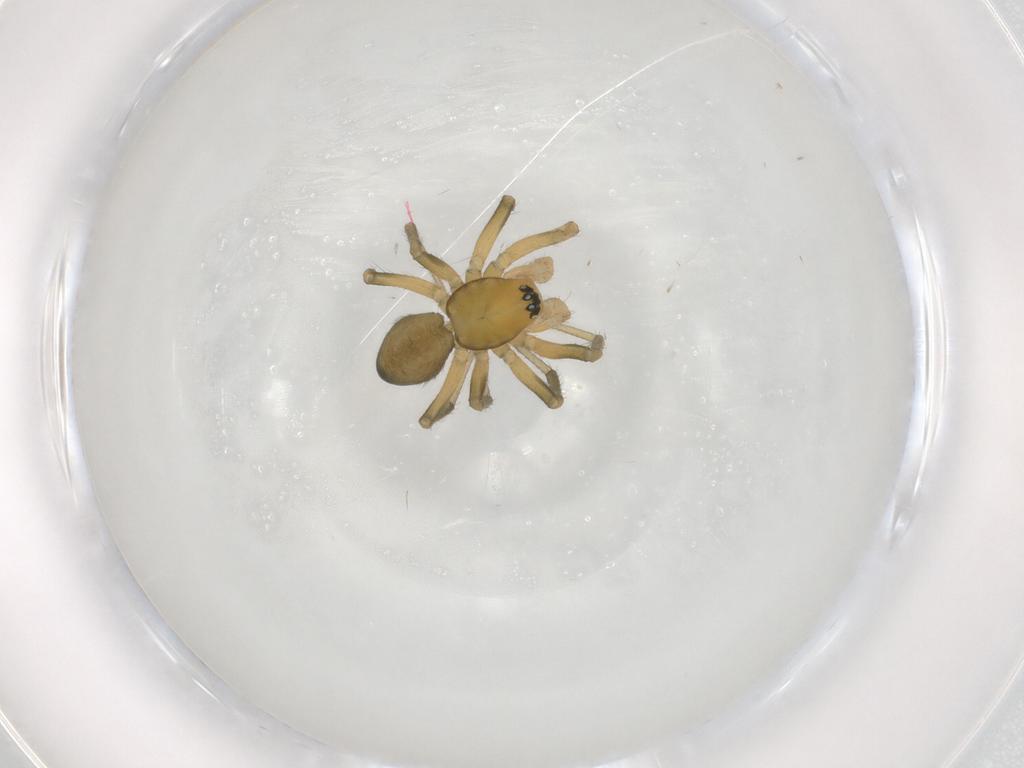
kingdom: Animalia
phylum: Arthropoda
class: Arachnida
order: Araneae
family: Linyphiidae
